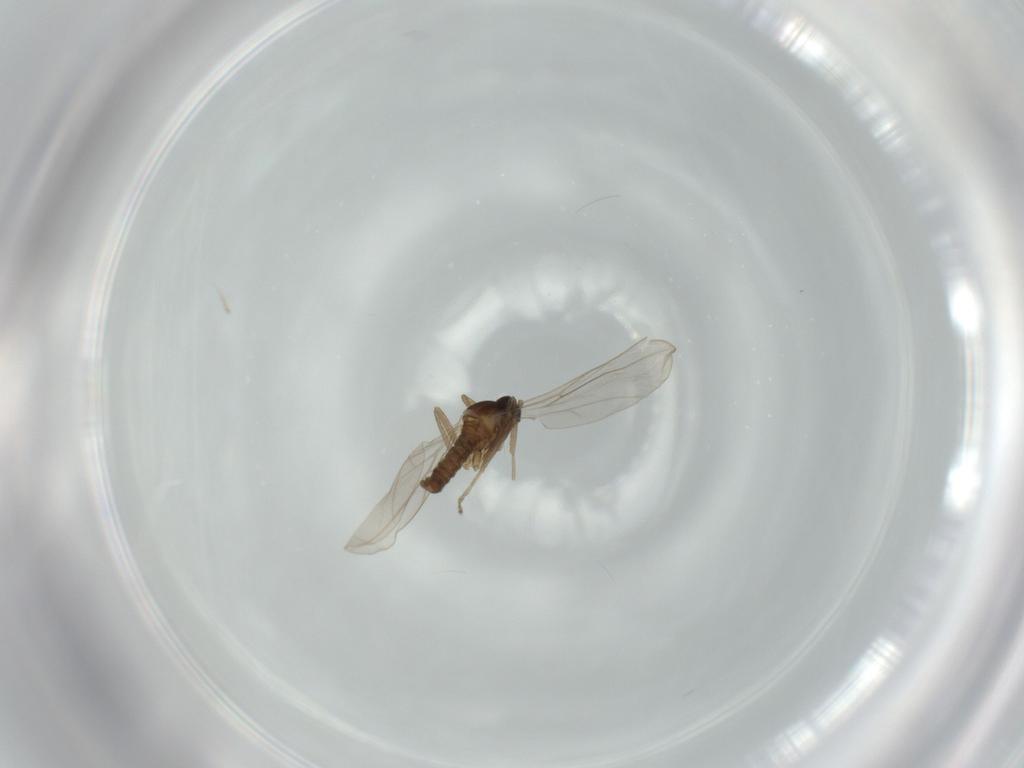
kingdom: Animalia
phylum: Arthropoda
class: Insecta
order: Diptera
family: Cecidomyiidae
